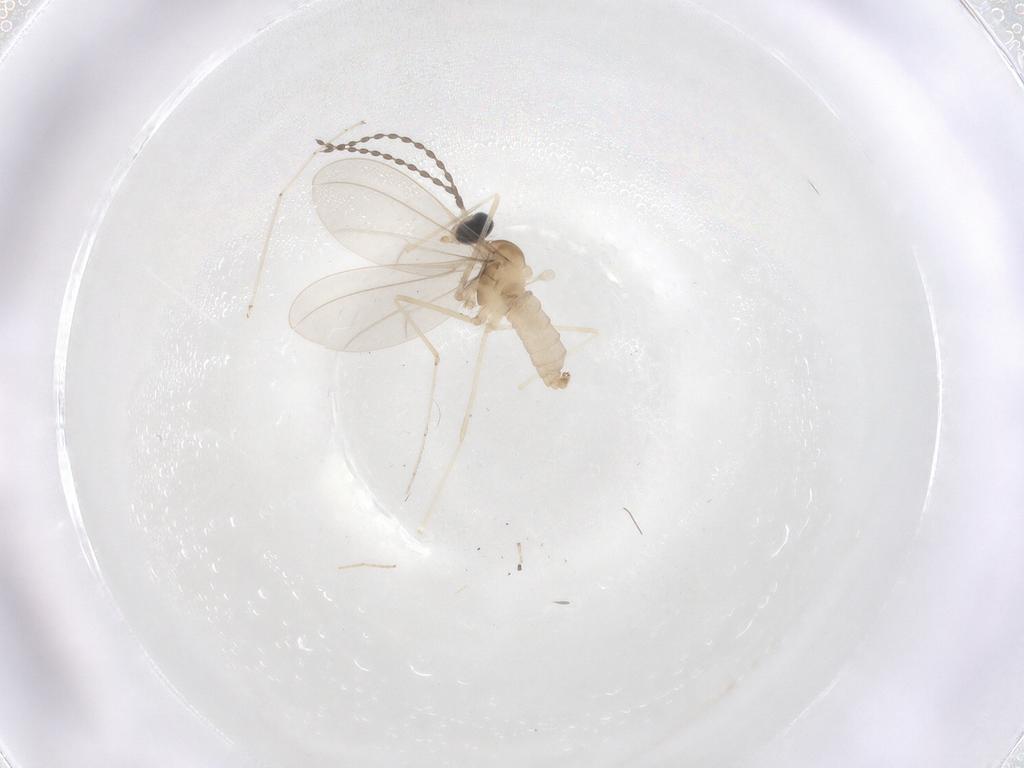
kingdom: Animalia
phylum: Arthropoda
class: Insecta
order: Diptera
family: Cecidomyiidae
